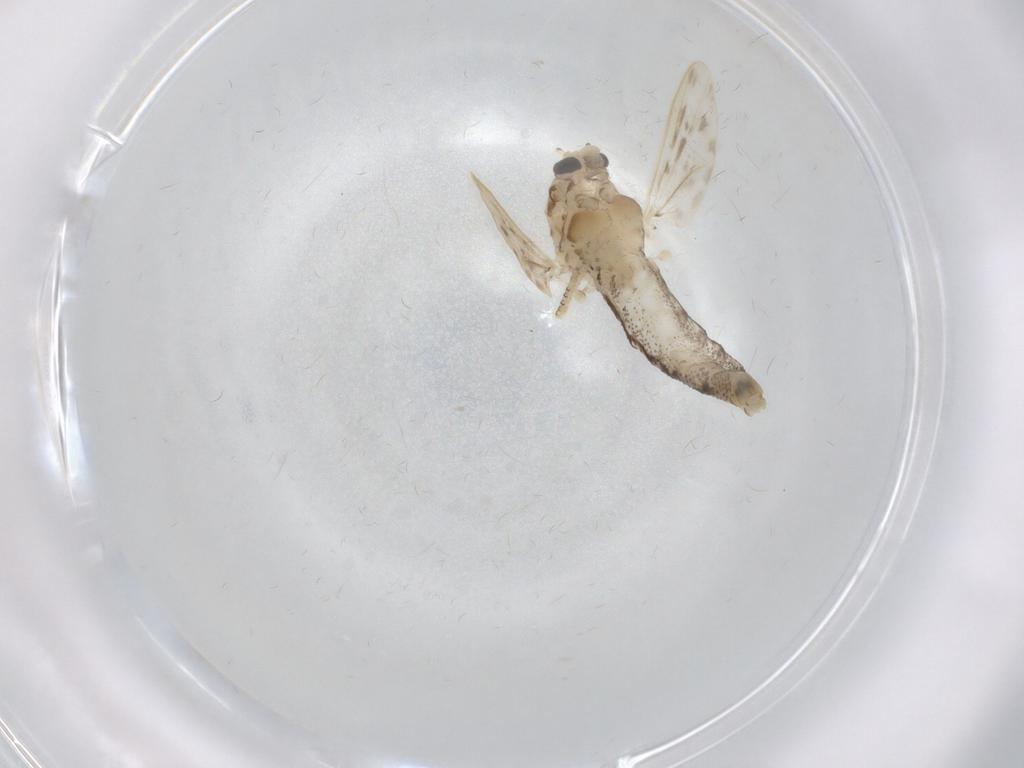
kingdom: Animalia
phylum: Arthropoda
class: Insecta
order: Diptera
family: Chaoboridae
